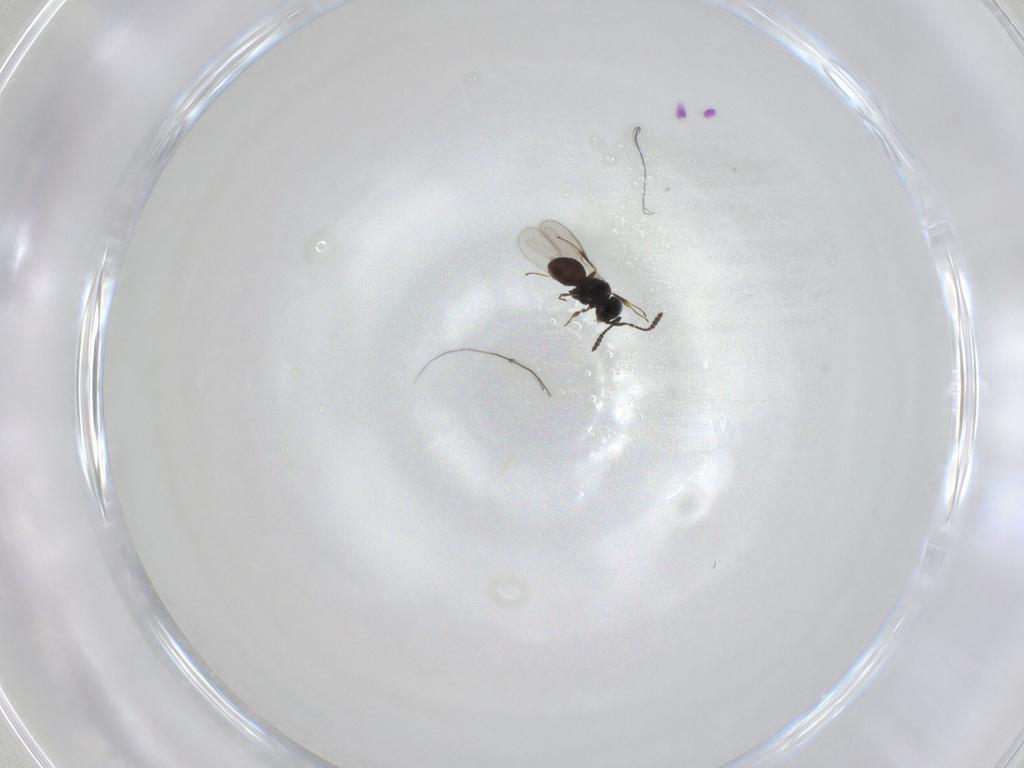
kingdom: Animalia
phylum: Arthropoda
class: Insecta
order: Hymenoptera
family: Scelionidae
